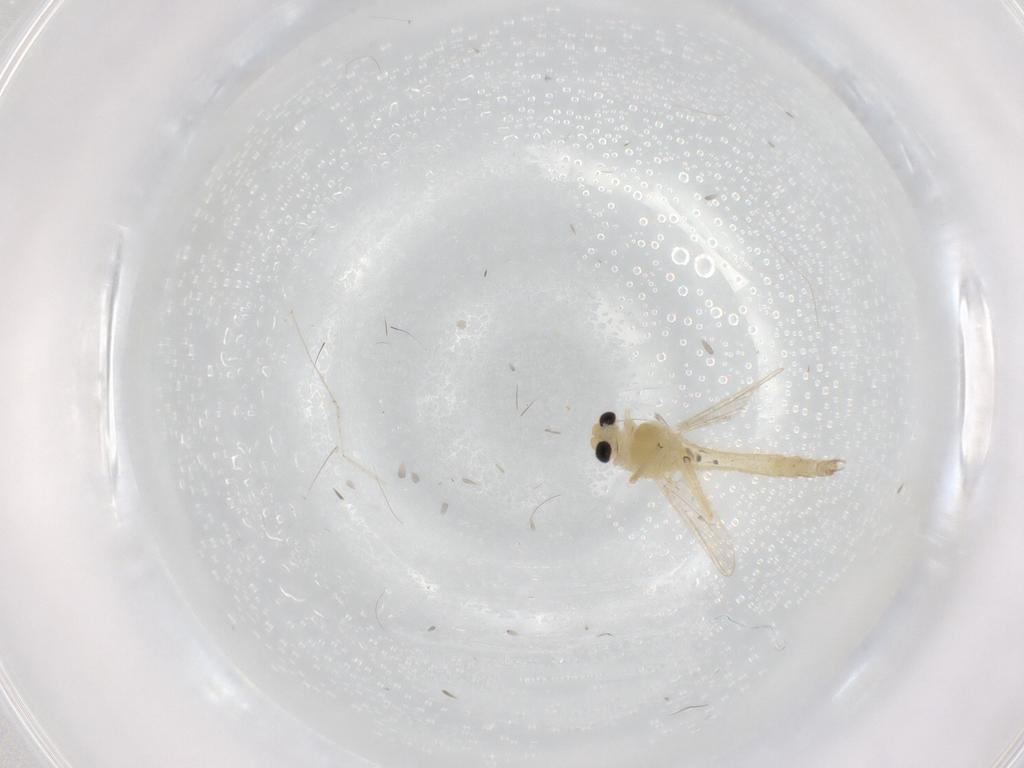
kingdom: Animalia
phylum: Arthropoda
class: Insecta
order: Diptera
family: Chironomidae
